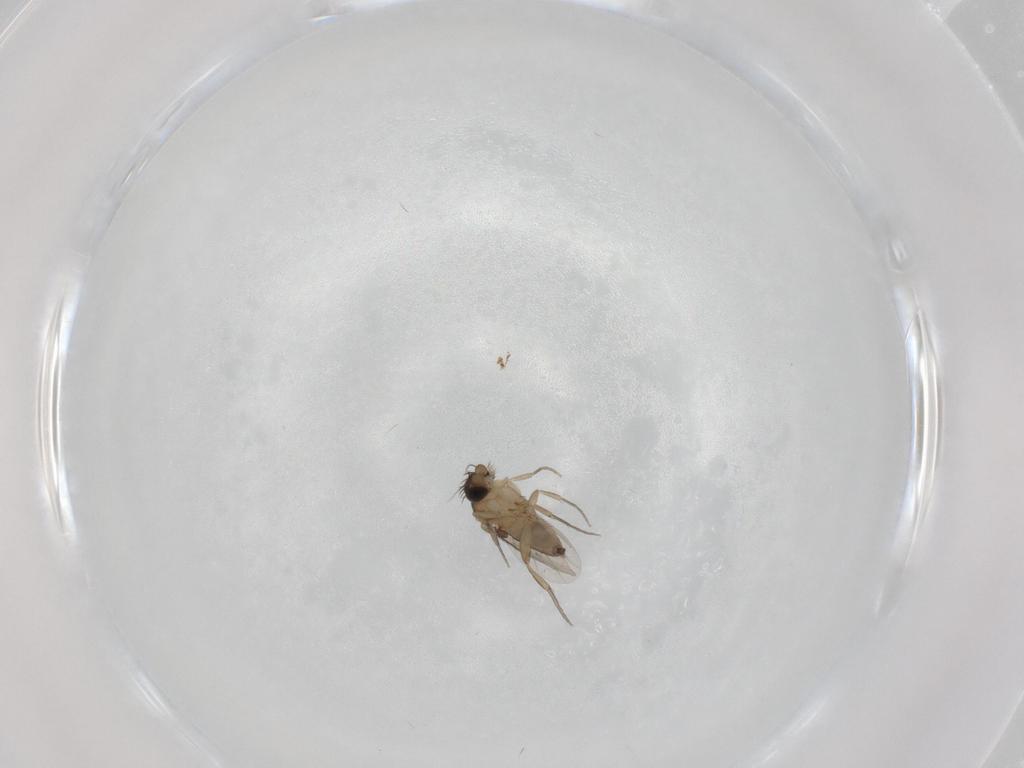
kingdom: Animalia
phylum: Arthropoda
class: Insecta
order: Diptera
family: Phoridae
